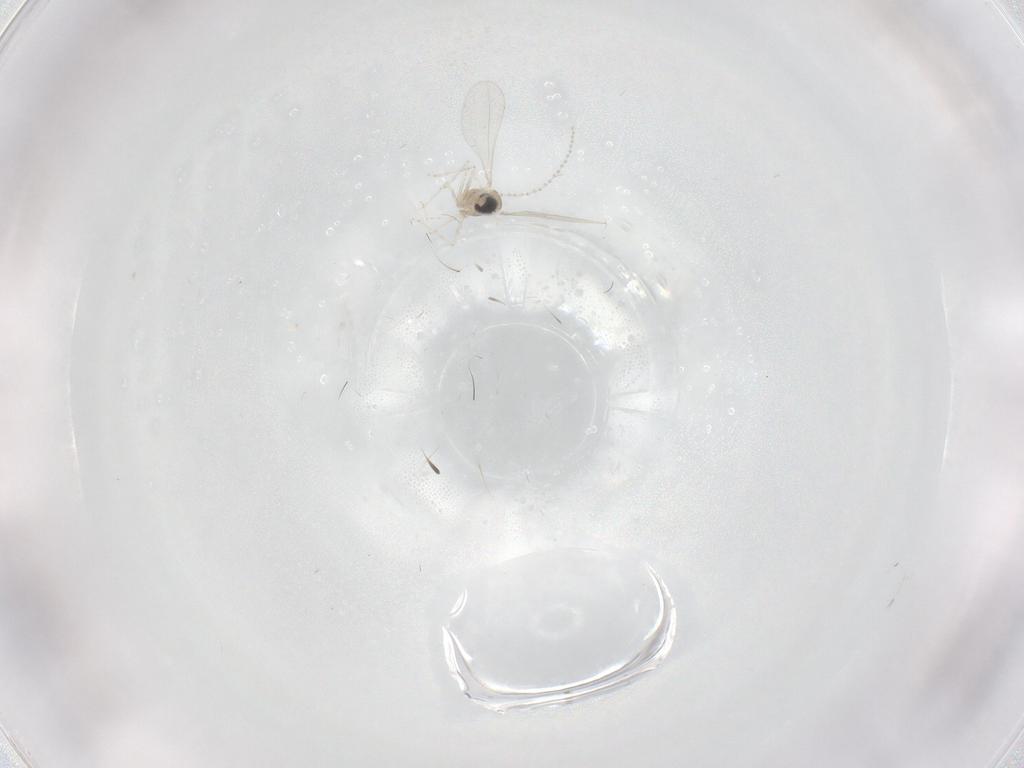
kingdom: Animalia
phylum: Arthropoda
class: Insecta
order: Diptera
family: Cecidomyiidae
